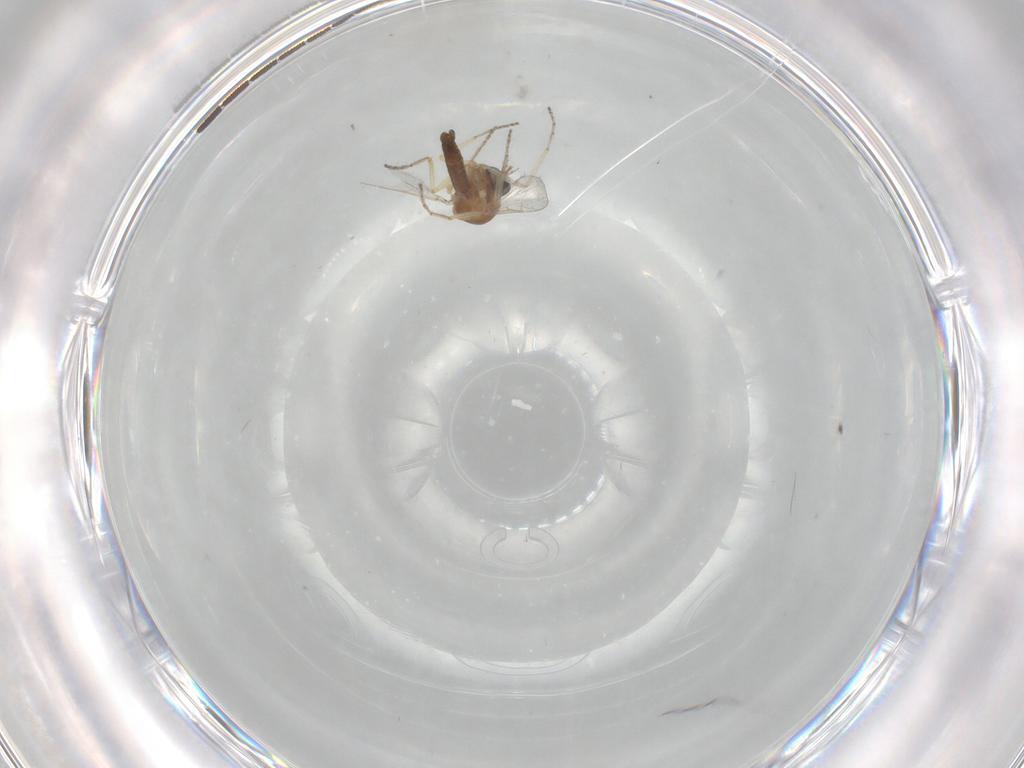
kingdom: Animalia
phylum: Arthropoda
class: Insecta
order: Diptera
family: Ceratopogonidae
